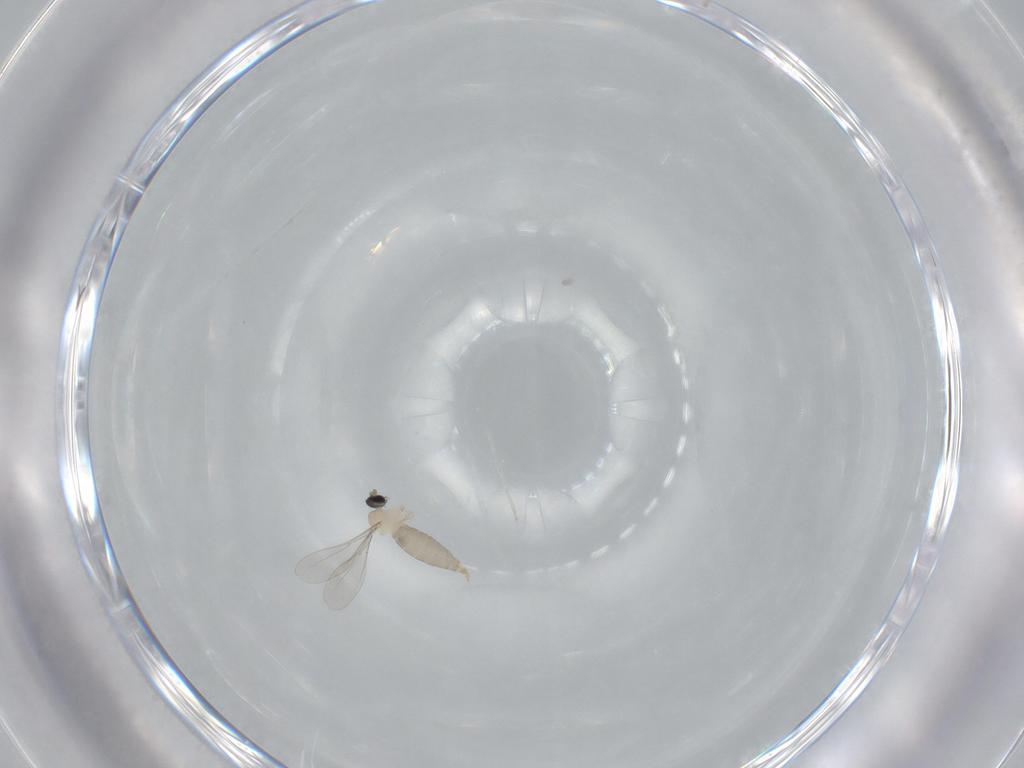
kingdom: Animalia
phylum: Arthropoda
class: Insecta
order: Diptera
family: Cecidomyiidae
